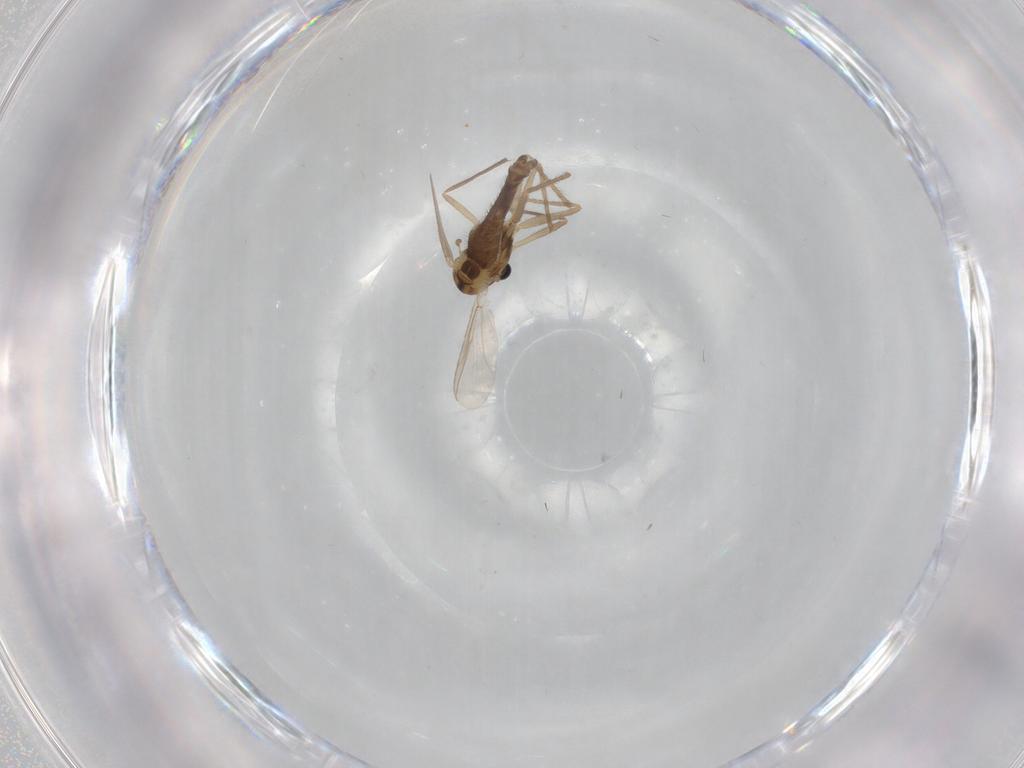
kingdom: Animalia
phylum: Arthropoda
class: Insecta
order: Diptera
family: Chironomidae
